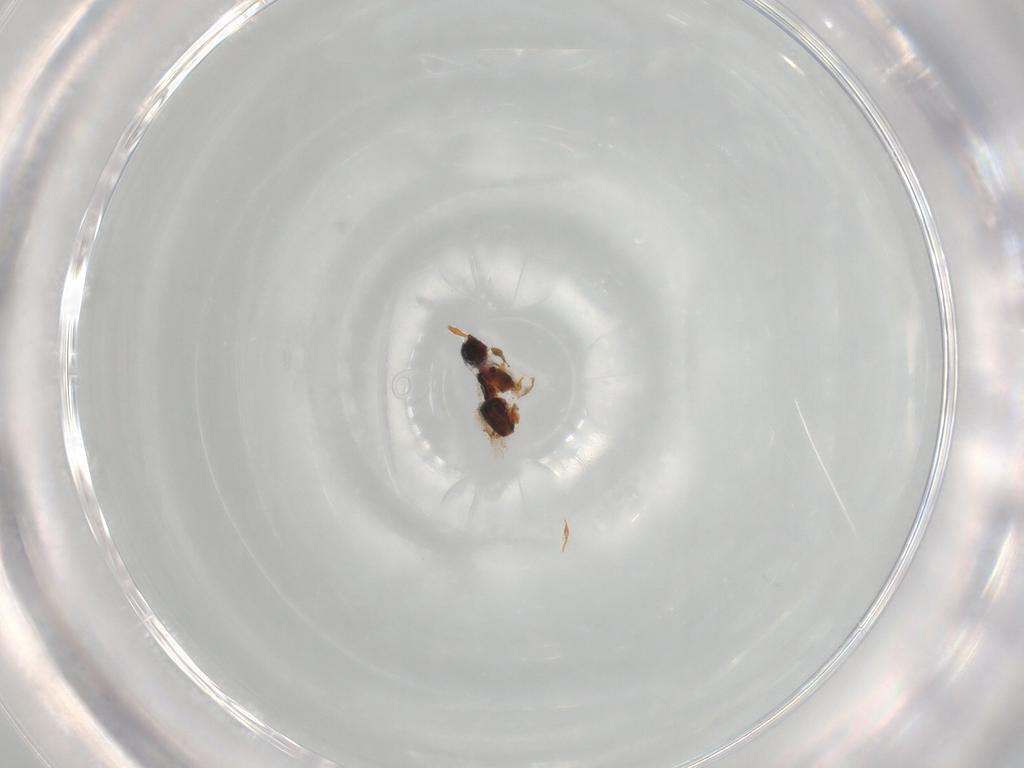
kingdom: Animalia
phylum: Arthropoda
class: Insecta
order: Hymenoptera
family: Diapriidae
